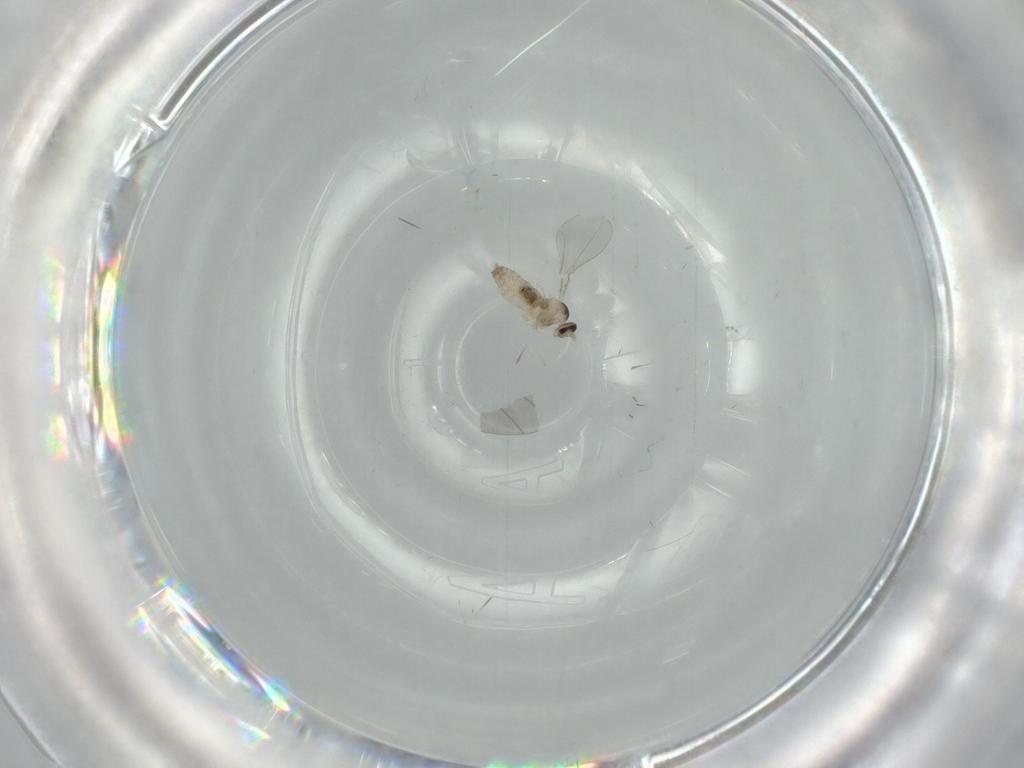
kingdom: Animalia
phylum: Arthropoda
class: Insecta
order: Diptera
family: Cecidomyiidae
